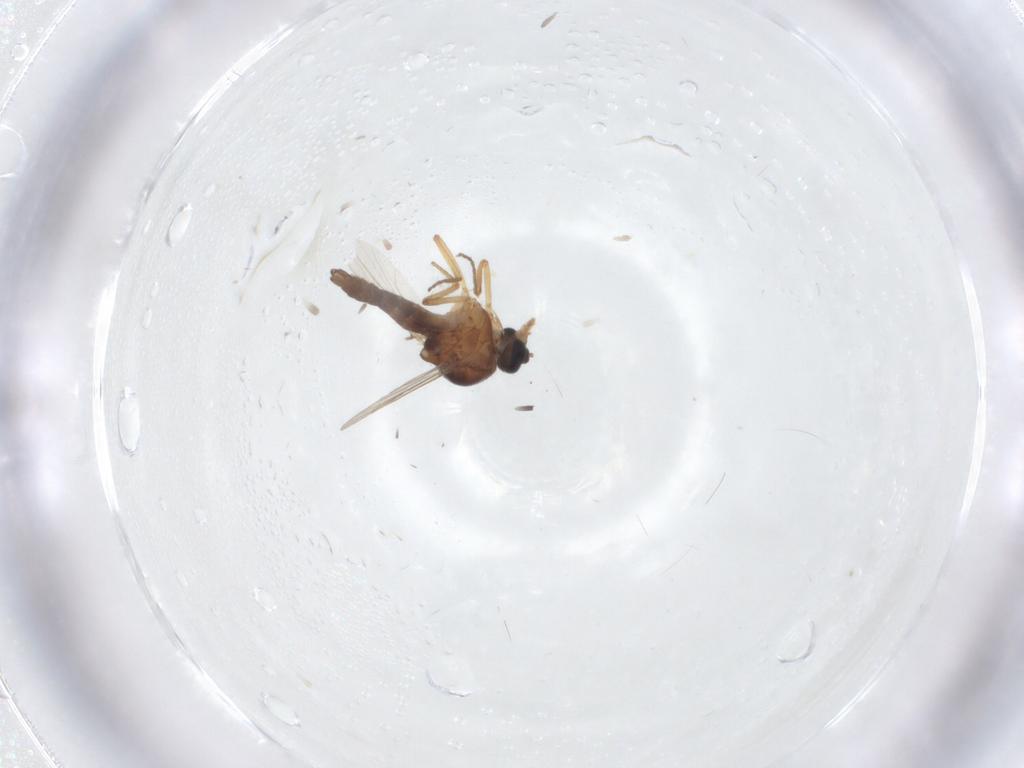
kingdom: Animalia
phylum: Arthropoda
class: Insecta
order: Diptera
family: Ceratopogonidae
